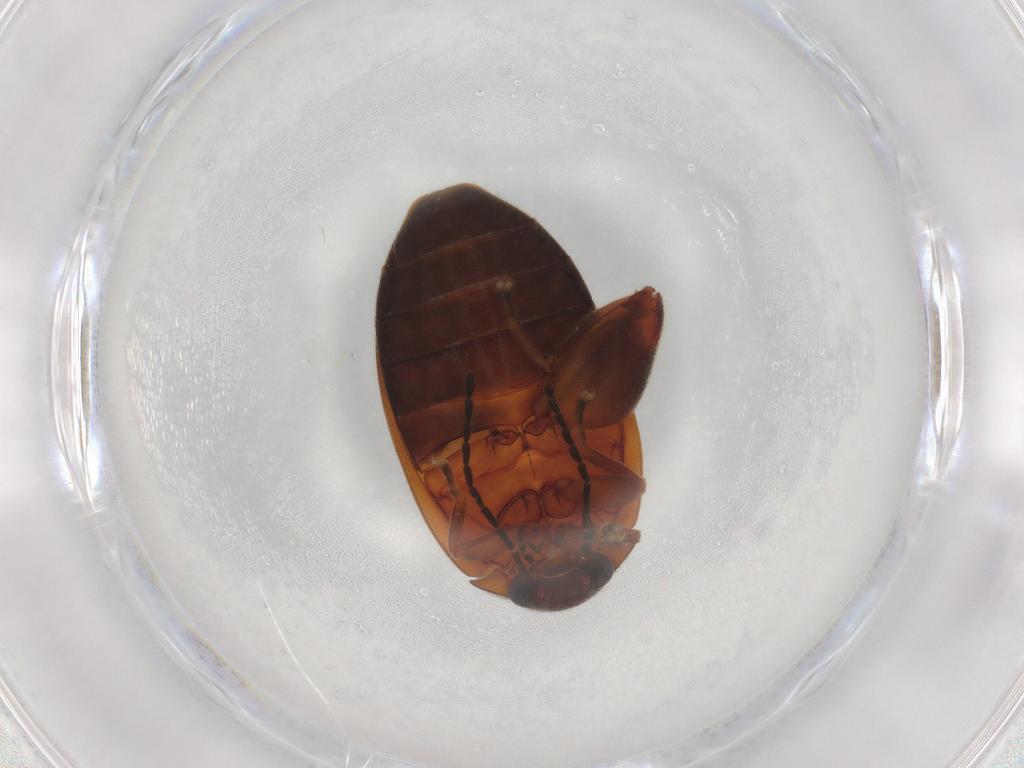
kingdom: Animalia
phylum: Arthropoda
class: Insecta
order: Coleoptera
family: Scirtidae
